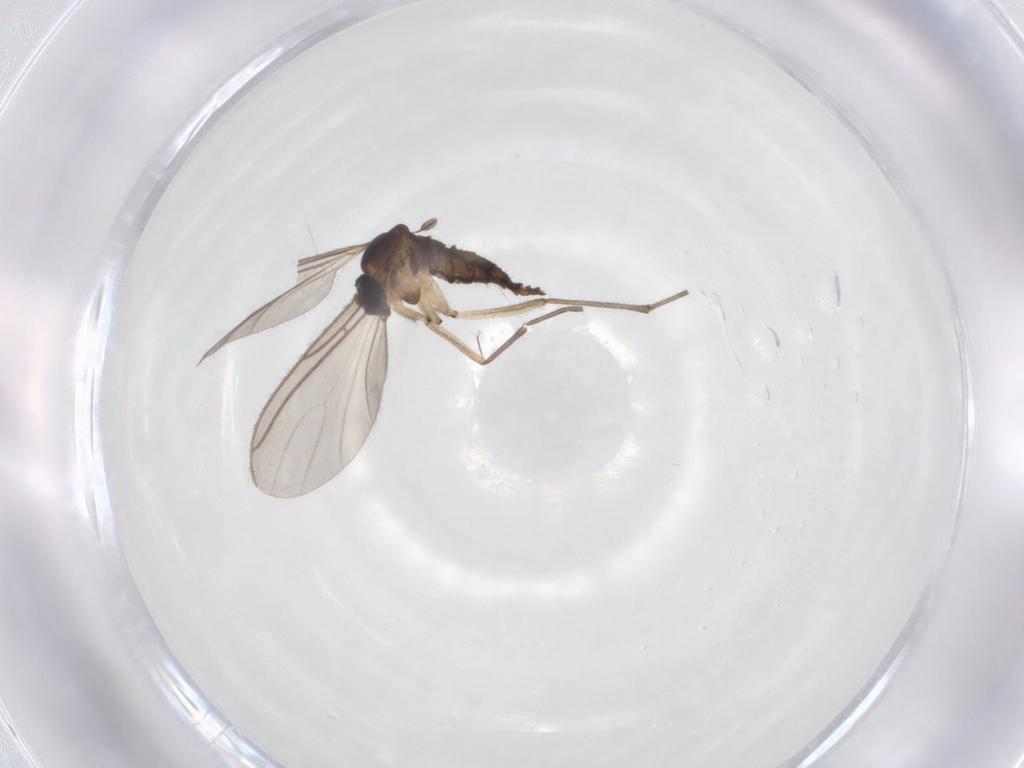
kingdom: Animalia
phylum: Arthropoda
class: Insecta
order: Diptera
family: Sciaridae
